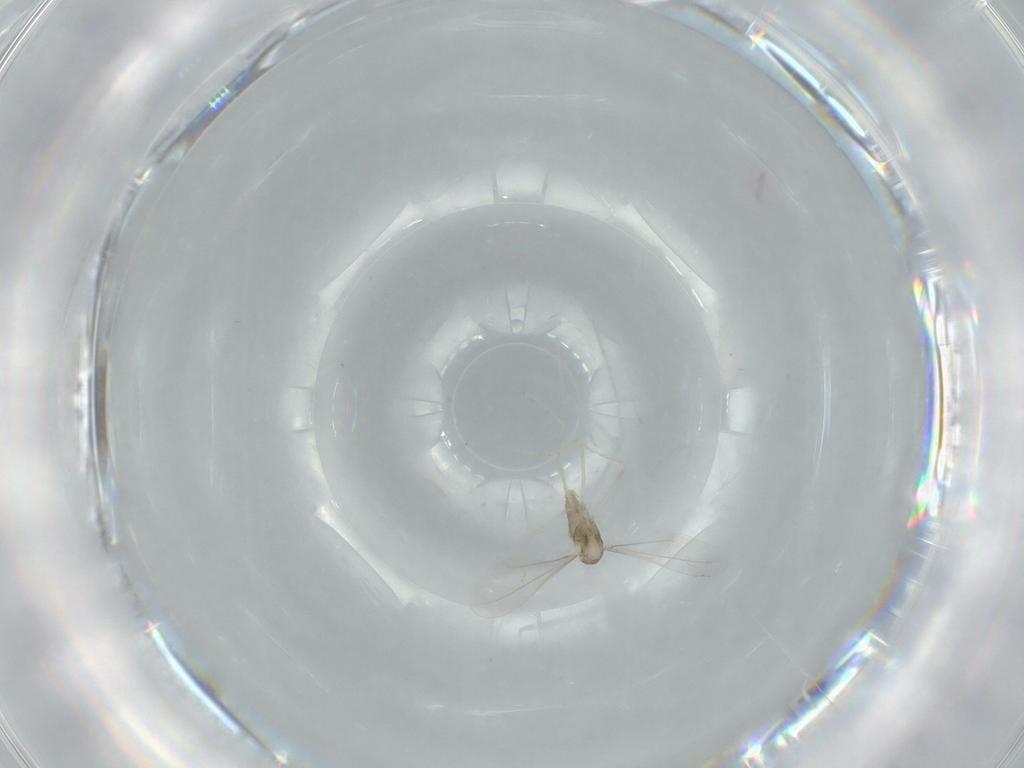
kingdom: Animalia
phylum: Arthropoda
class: Insecta
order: Diptera
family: Cecidomyiidae
